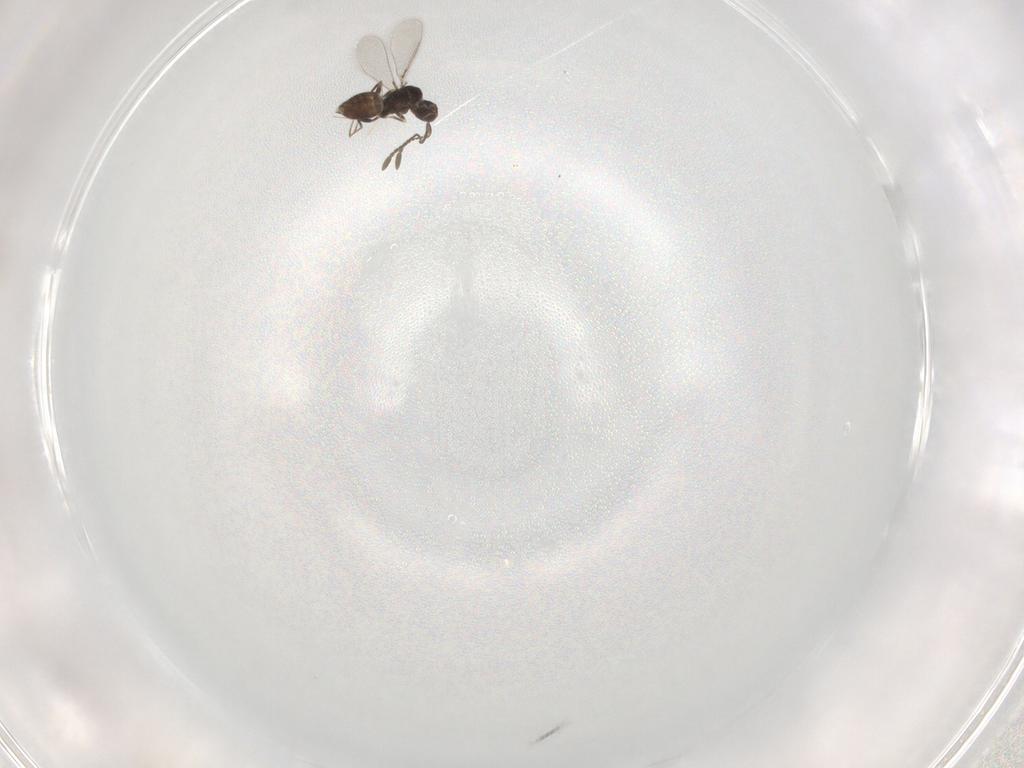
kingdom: Animalia
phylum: Arthropoda
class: Insecta
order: Hymenoptera
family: Mymaridae
